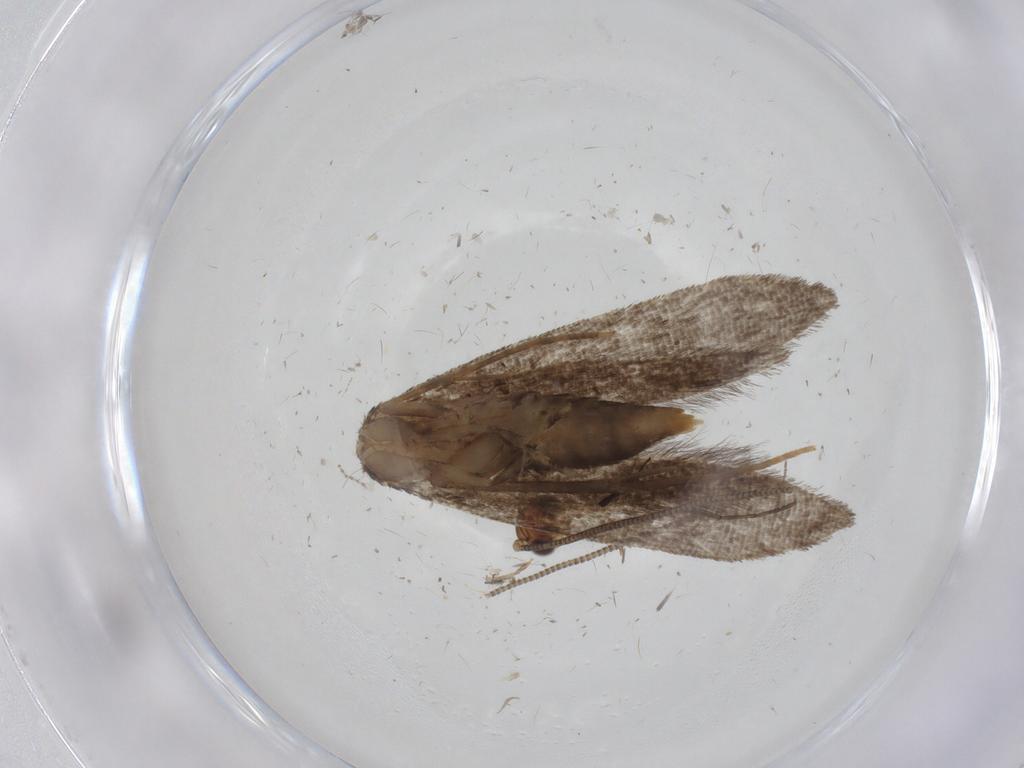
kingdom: Animalia
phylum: Arthropoda
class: Insecta
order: Lepidoptera
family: Tineidae
